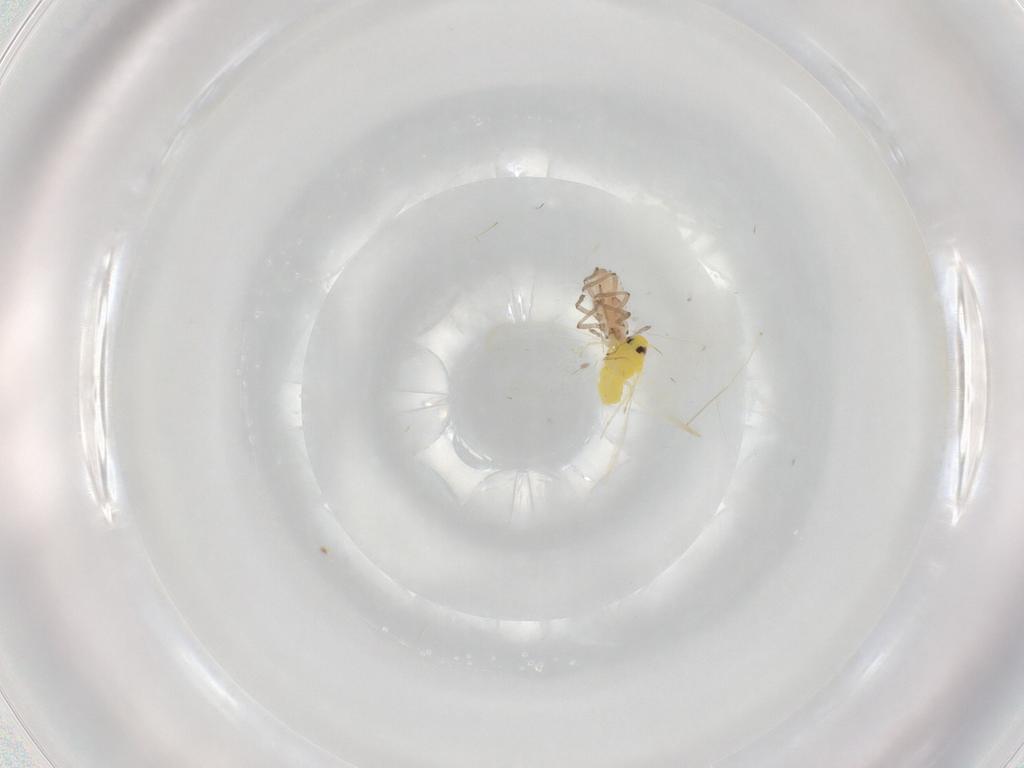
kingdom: Animalia
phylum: Arthropoda
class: Insecta
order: Hemiptera
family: Aphididae
